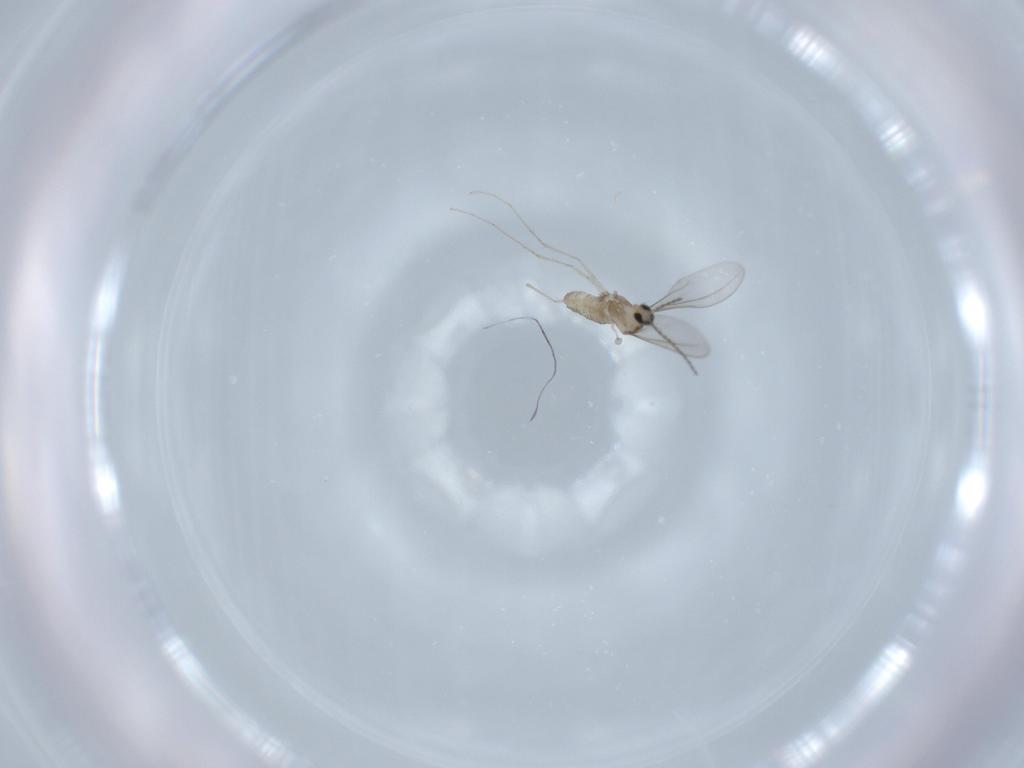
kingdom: Animalia
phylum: Arthropoda
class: Insecta
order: Diptera
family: Cecidomyiidae
